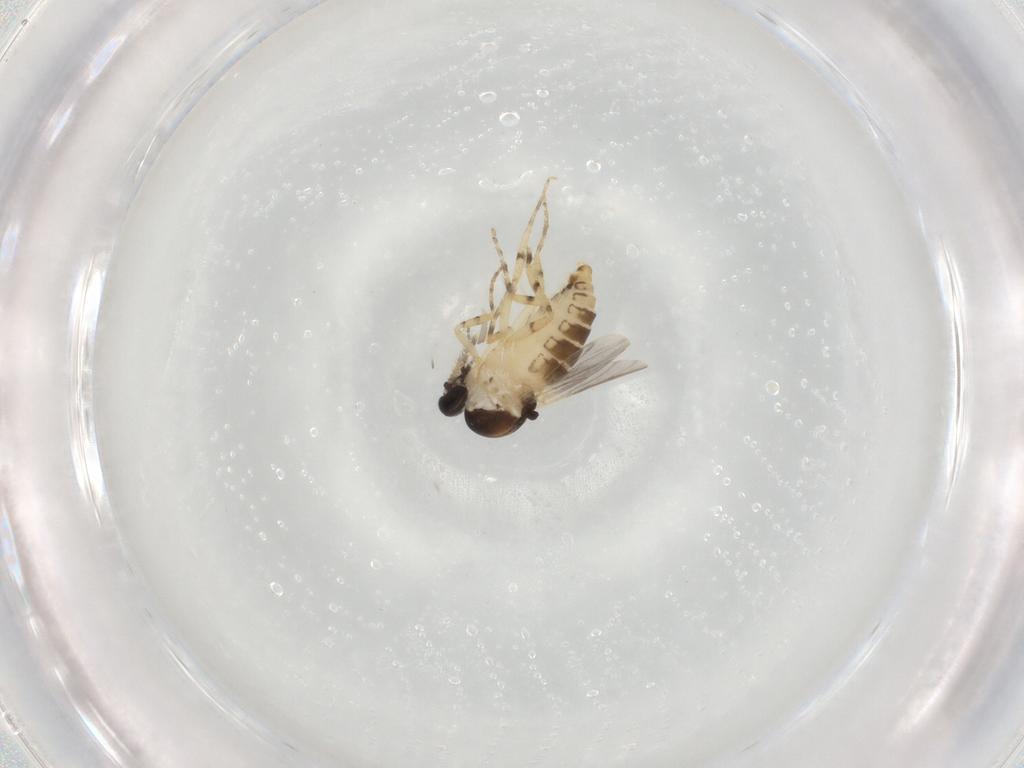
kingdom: Animalia
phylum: Arthropoda
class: Insecta
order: Diptera
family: Ceratopogonidae
